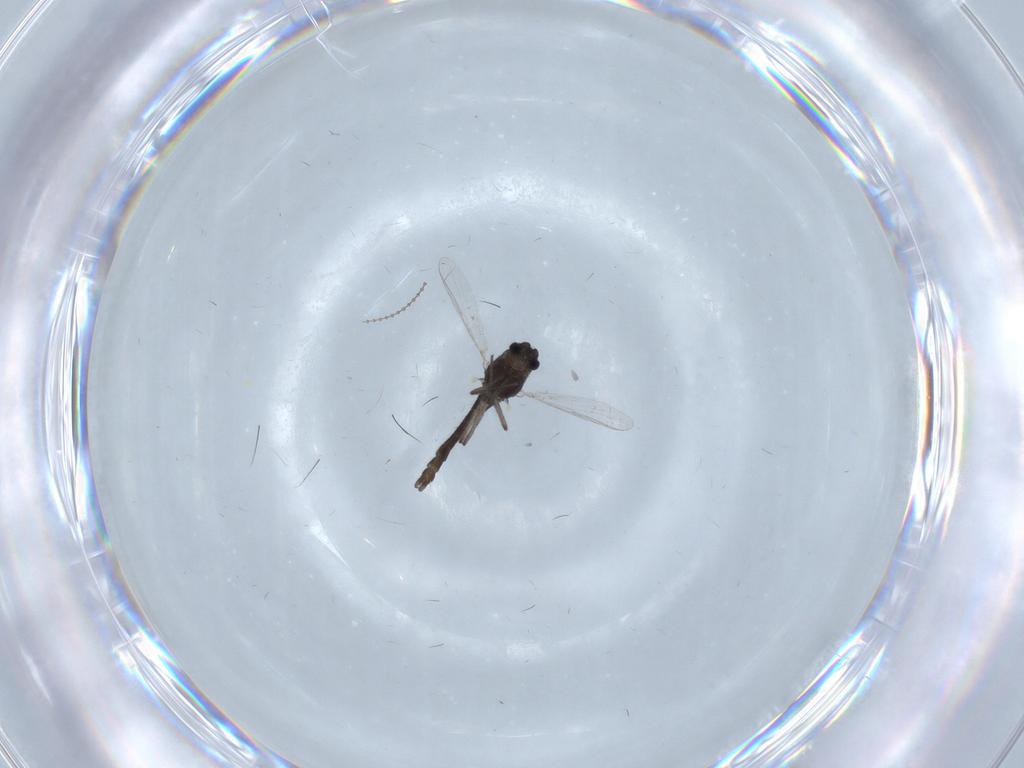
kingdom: Animalia
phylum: Arthropoda
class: Insecta
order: Diptera
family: Chironomidae
